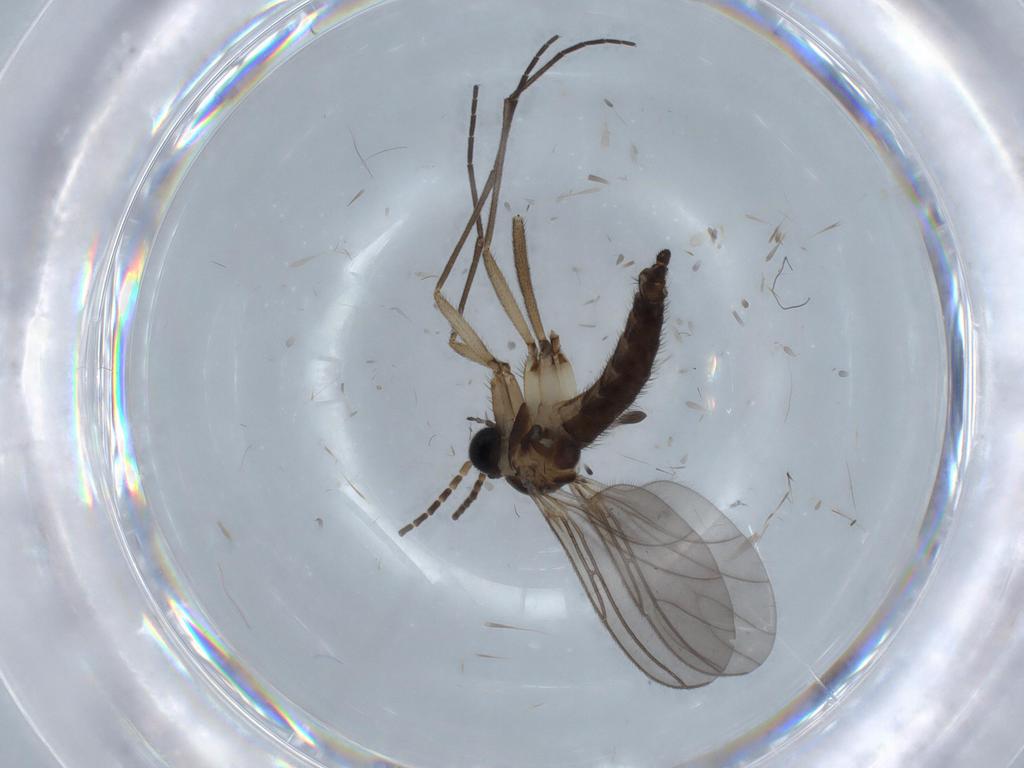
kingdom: Animalia
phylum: Arthropoda
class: Insecta
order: Diptera
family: Sciaridae
